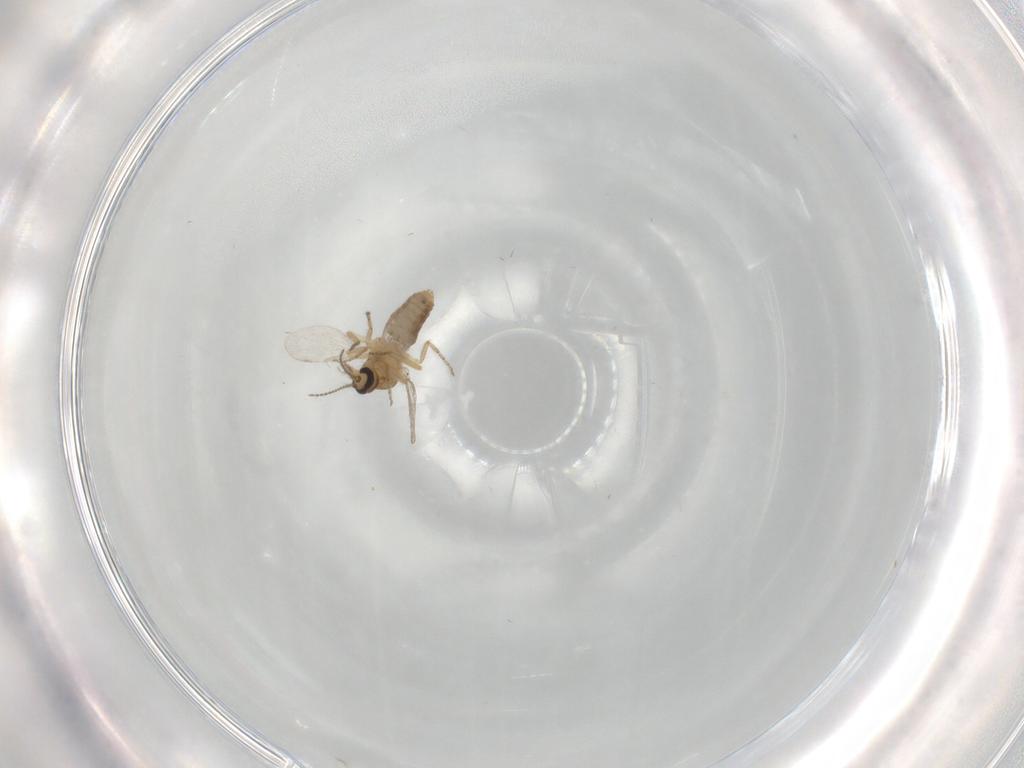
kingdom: Animalia
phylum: Arthropoda
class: Insecta
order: Diptera
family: Ceratopogonidae
